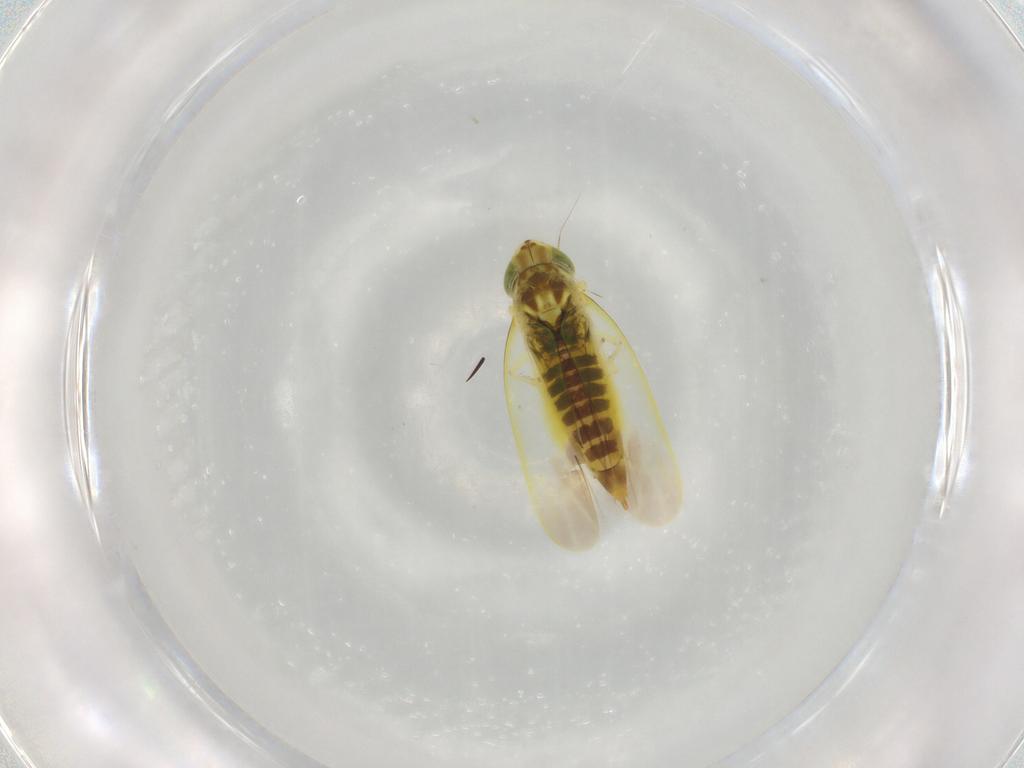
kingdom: Animalia
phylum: Arthropoda
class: Insecta
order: Hemiptera
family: Cicadellidae
